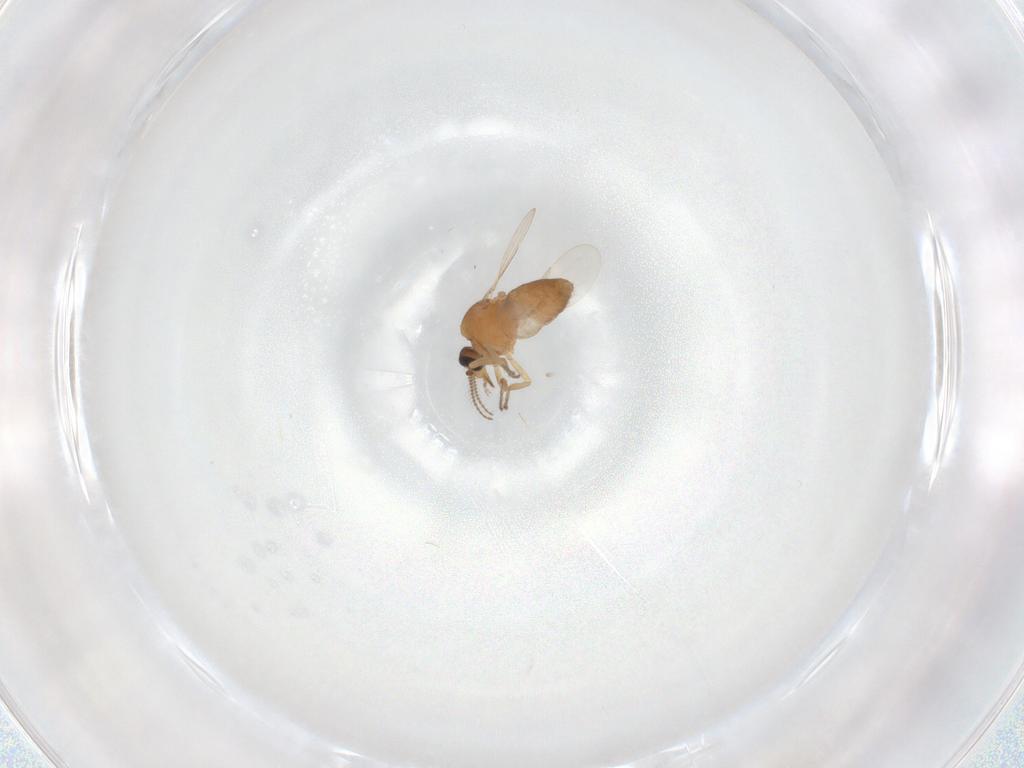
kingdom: Animalia
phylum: Arthropoda
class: Insecta
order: Diptera
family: Ceratopogonidae
